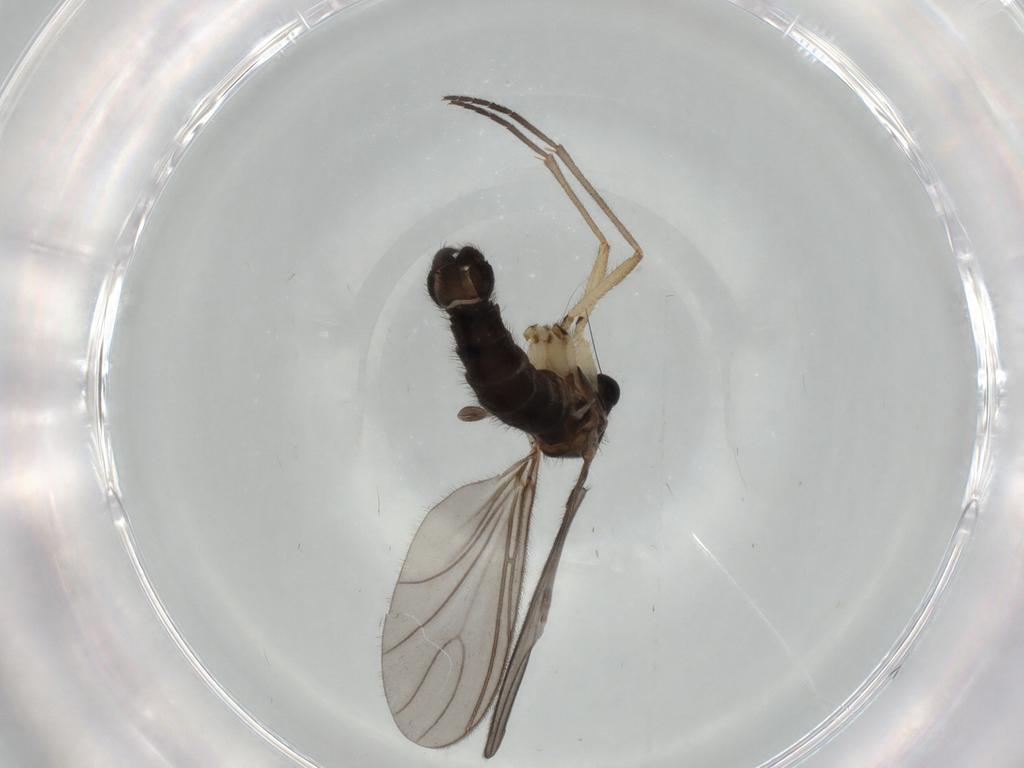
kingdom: Animalia
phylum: Arthropoda
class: Insecta
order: Diptera
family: Sciaridae
